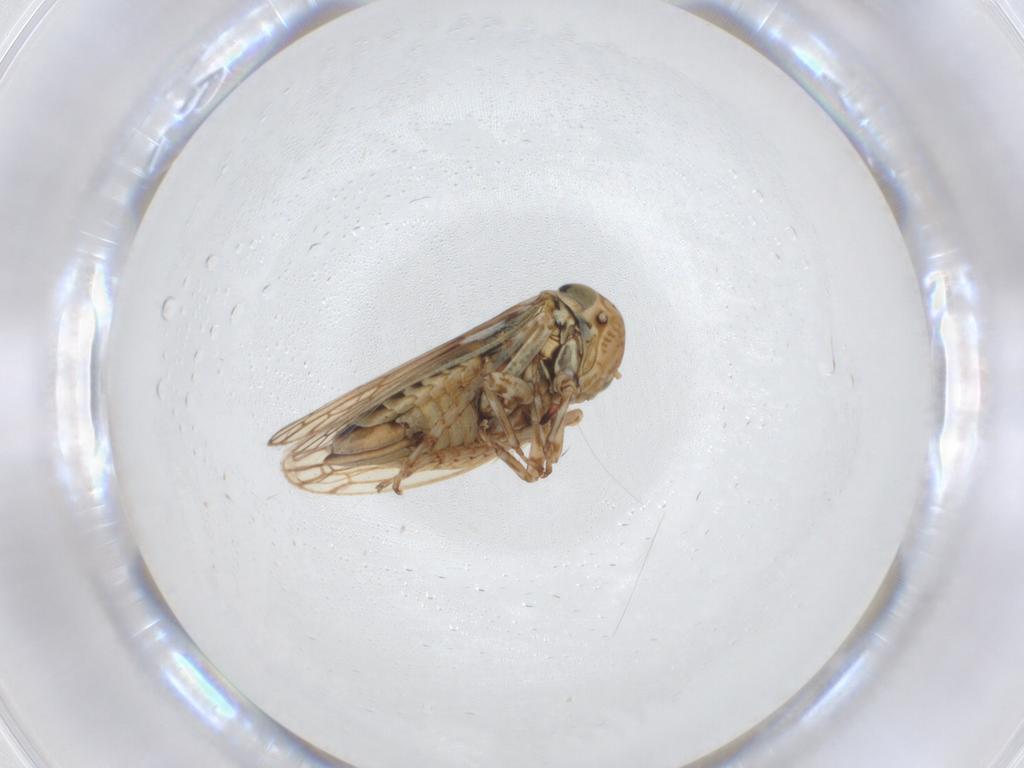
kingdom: Animalia
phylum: Arthropoda
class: Insecta
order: Hemiptera
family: Cicadellidae
